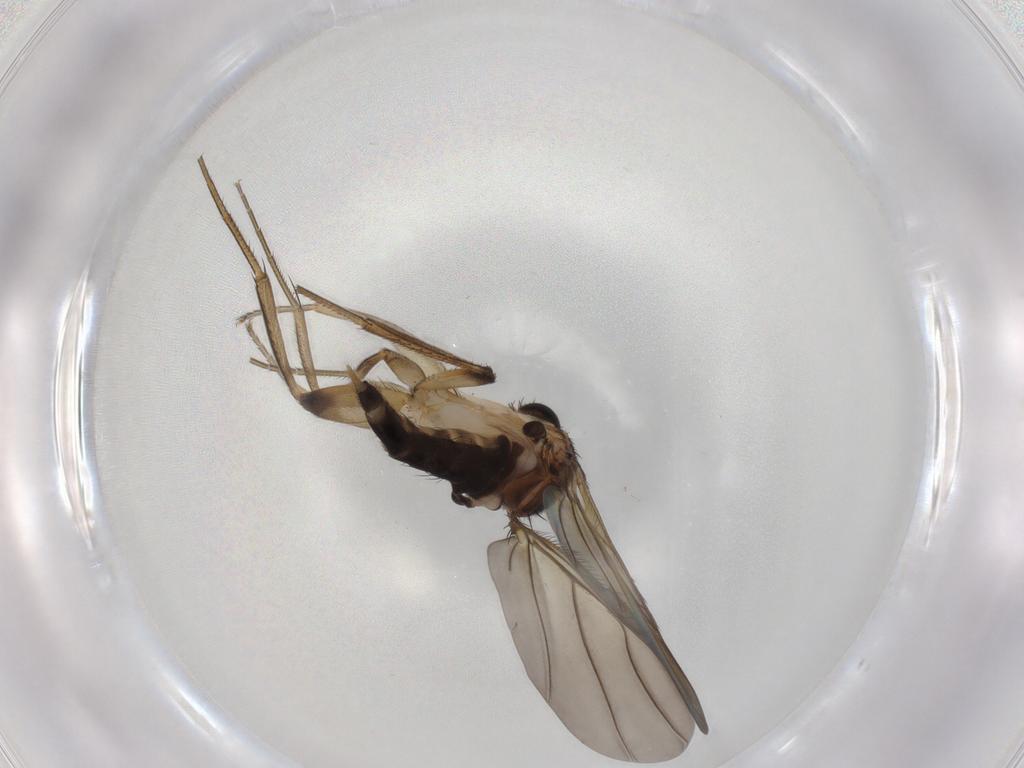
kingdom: Animalia
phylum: Arthropoda
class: Insecta
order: Diptera
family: Phoridae
